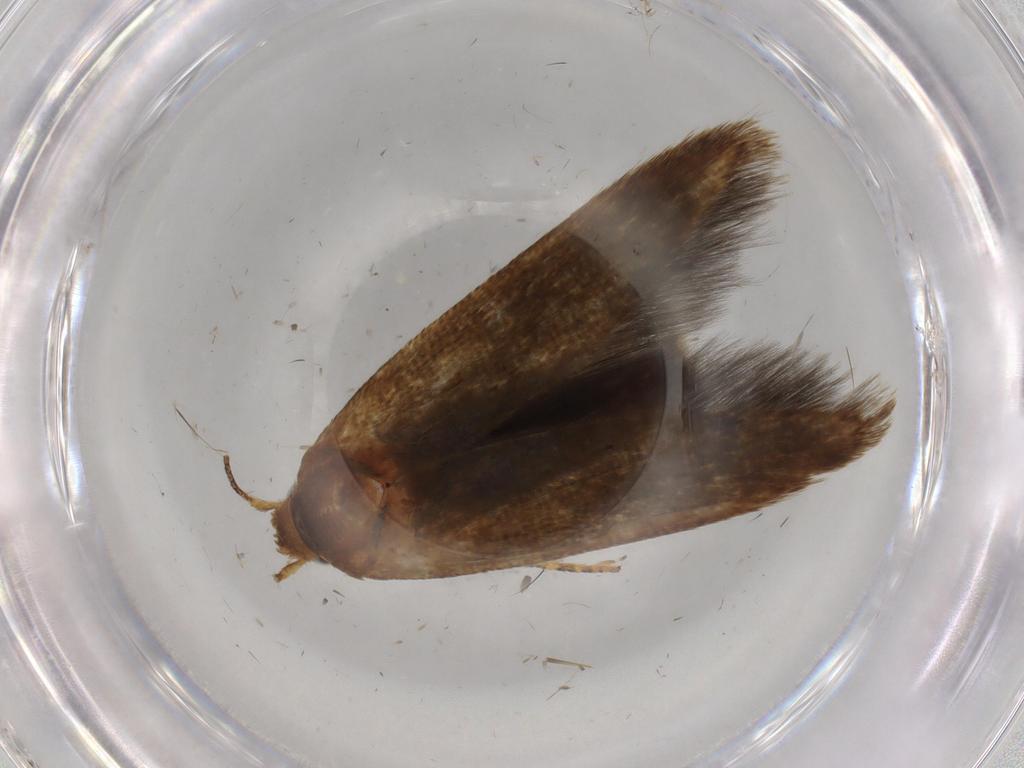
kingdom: Animalia
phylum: Arthropoda
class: Insecta
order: Lepidoptera
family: Blastobasidae
